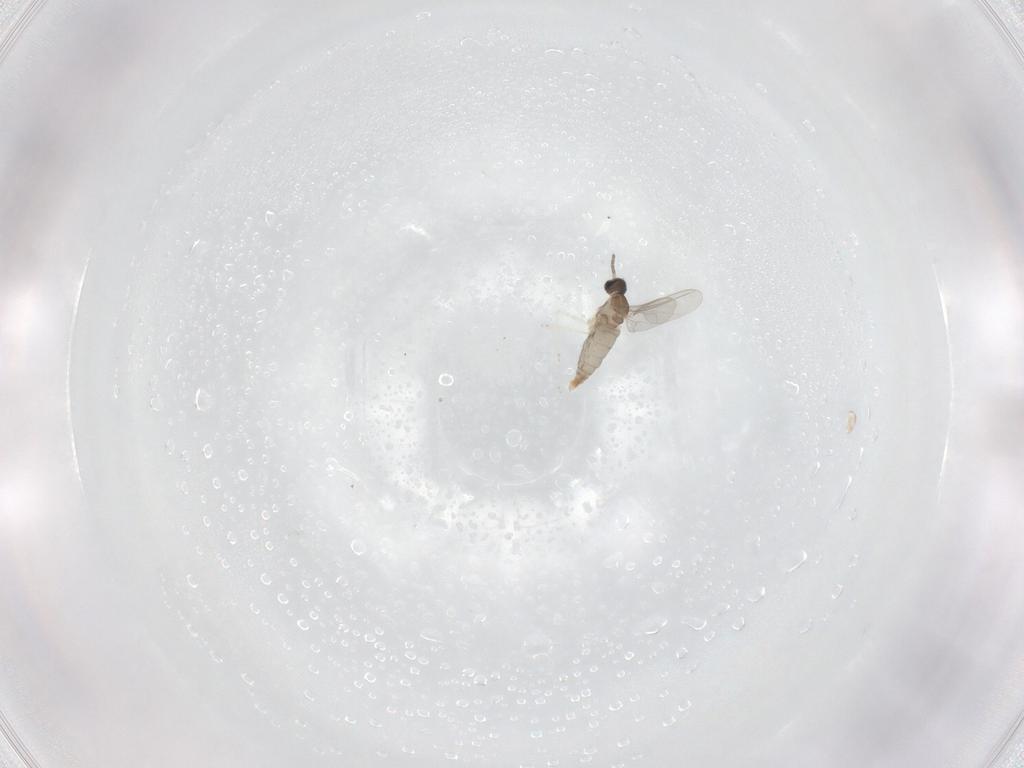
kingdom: Animalia
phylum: Arthropoda
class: Insecta
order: Diptera
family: Cecidomyiidae
